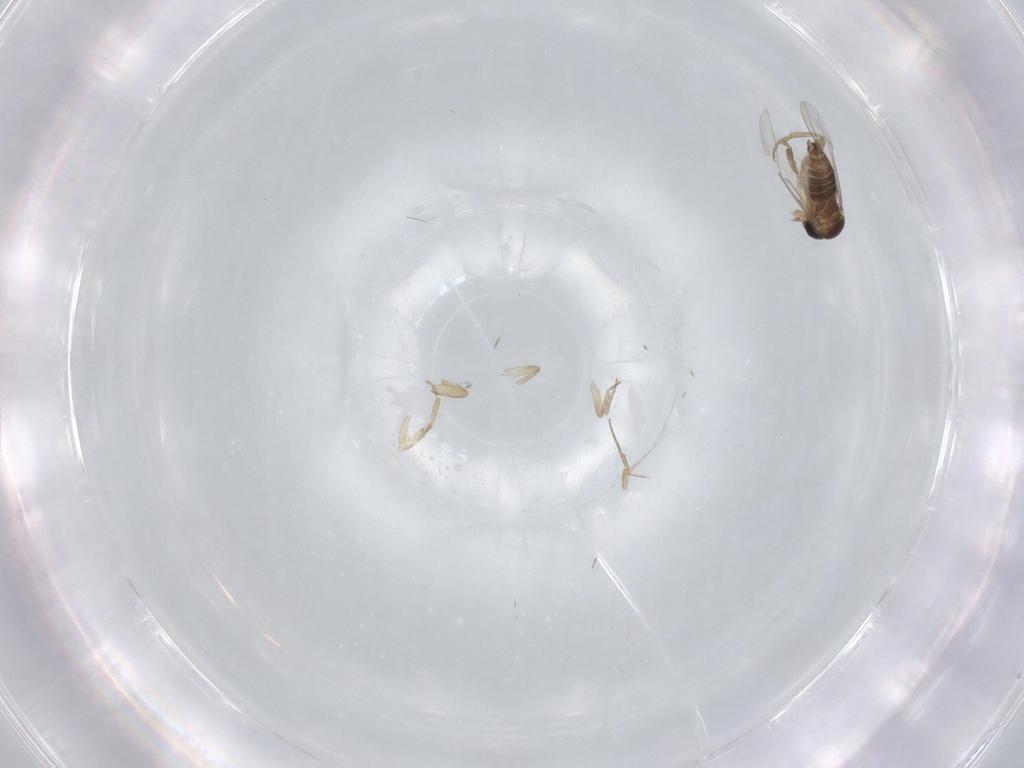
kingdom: Animalia
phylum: Arthropoda
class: Insecta
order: Diptera
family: Phoridae
